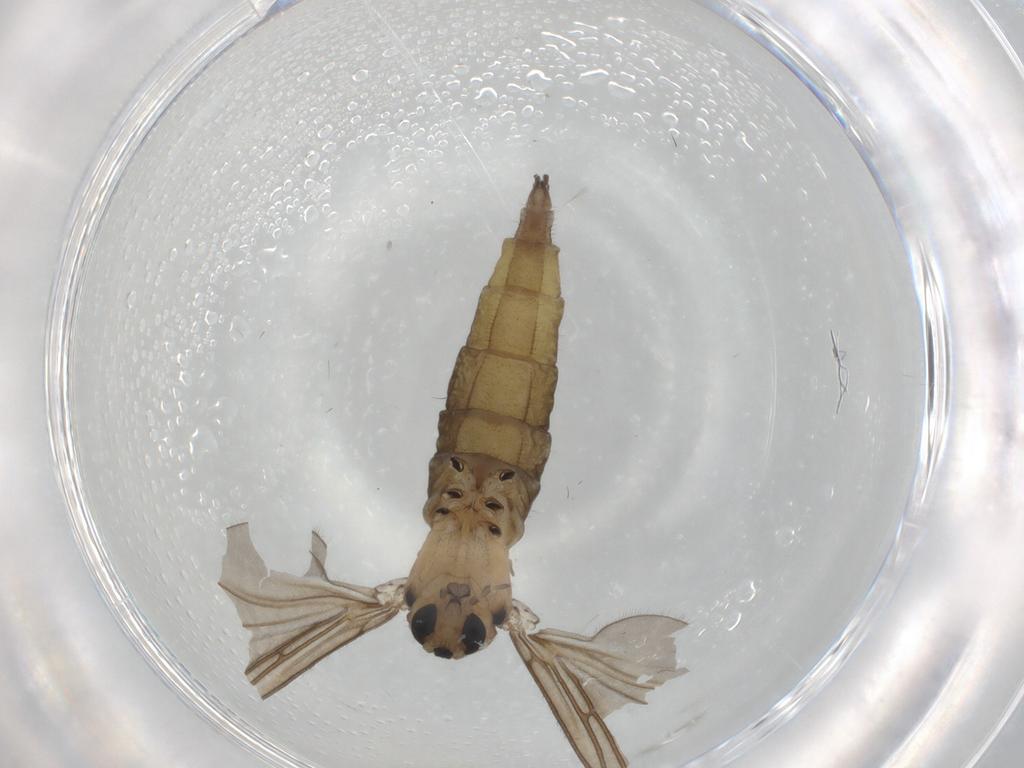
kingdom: Animalia
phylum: Arthropoda
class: Insecta
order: Diptera
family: Sciaridae
